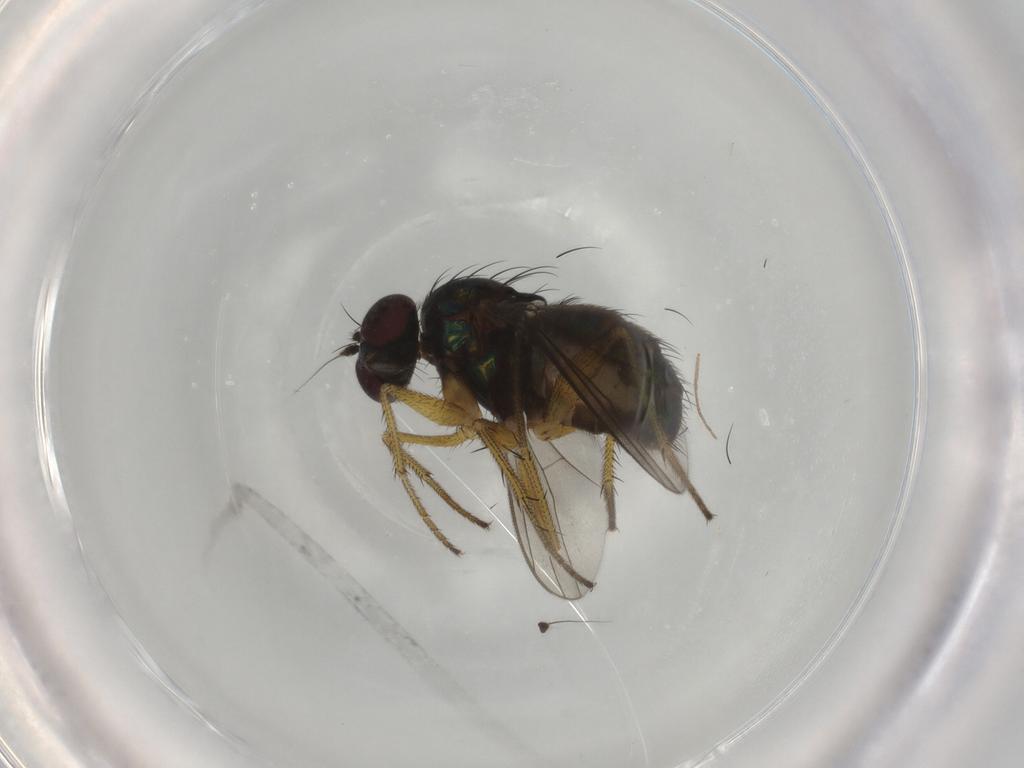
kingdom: Animalia
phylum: Arthropoda
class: Insecta
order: Diptera
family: Dolichopodidae
